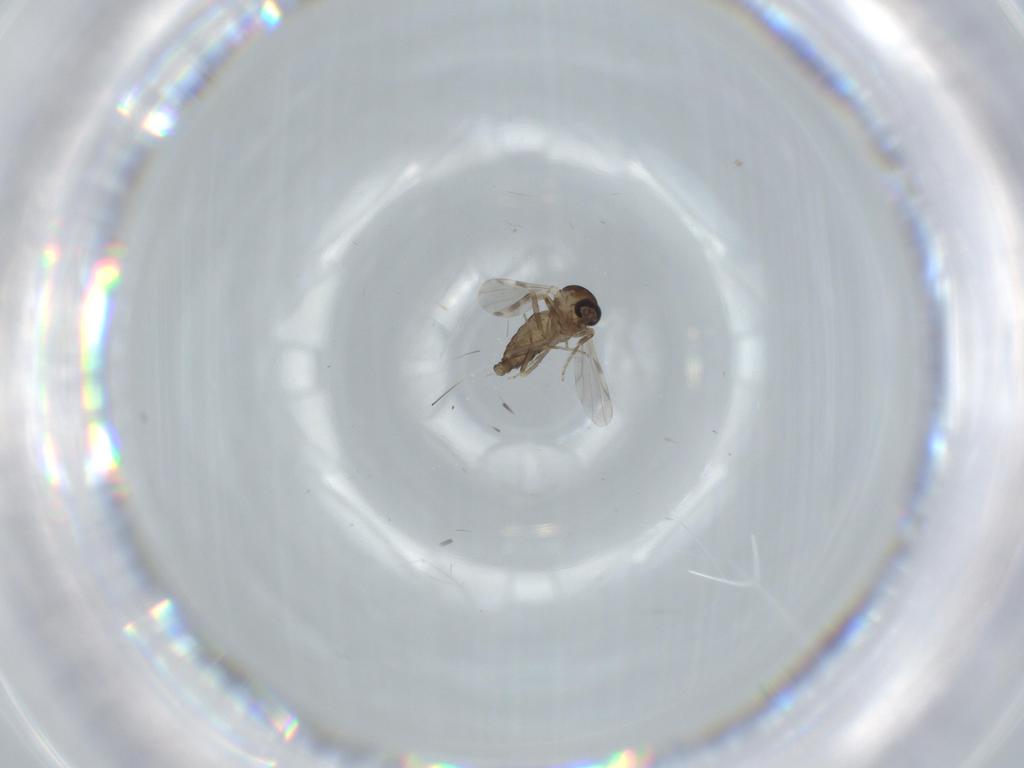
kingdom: Animalia
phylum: Arthropoda
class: Insecta
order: Diptera
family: Ceratopogonidae
